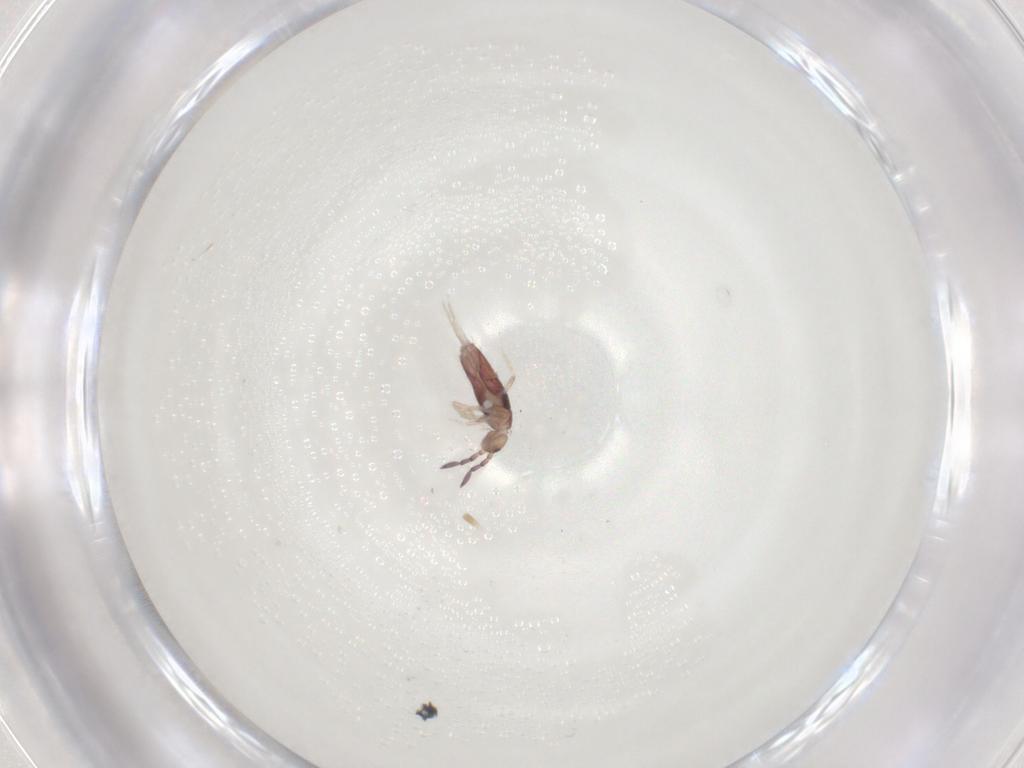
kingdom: Animalia
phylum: Arthropoda
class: Collembola
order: Entomobryomorpha
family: Entomobryidae
